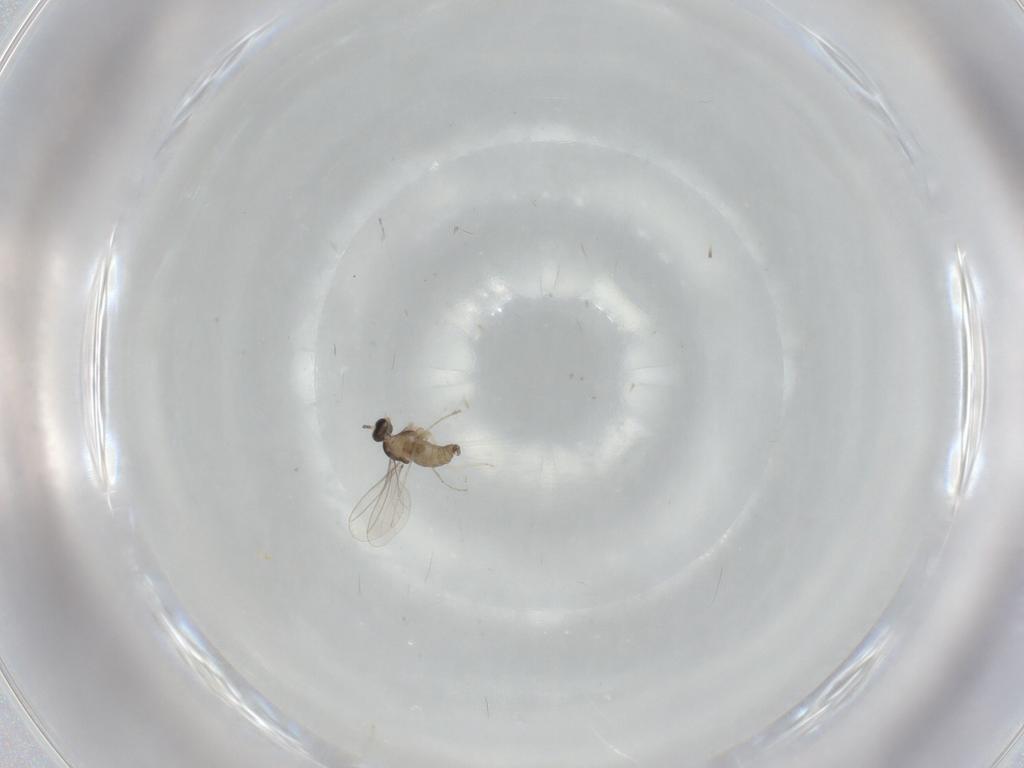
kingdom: Animalia
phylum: Arthropoda
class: Insecta
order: Diptera
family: Cecidomyiidae
